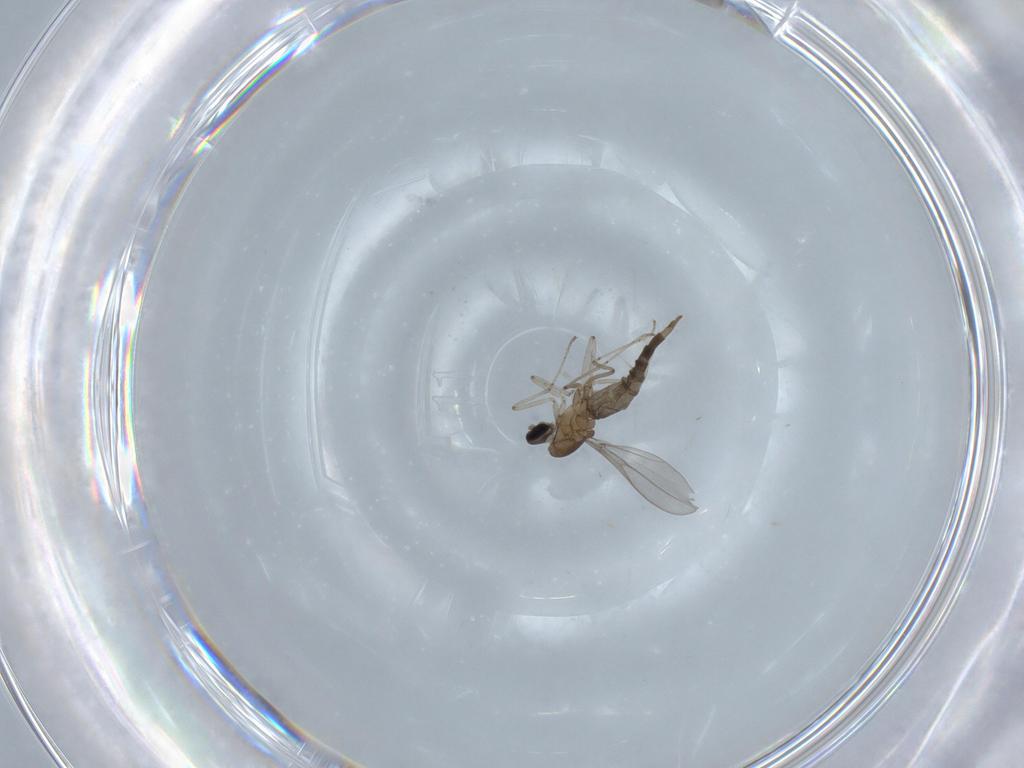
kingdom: Animalia
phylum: Arthropoda
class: Insecta
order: Diptera
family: Cecidomyiidae
